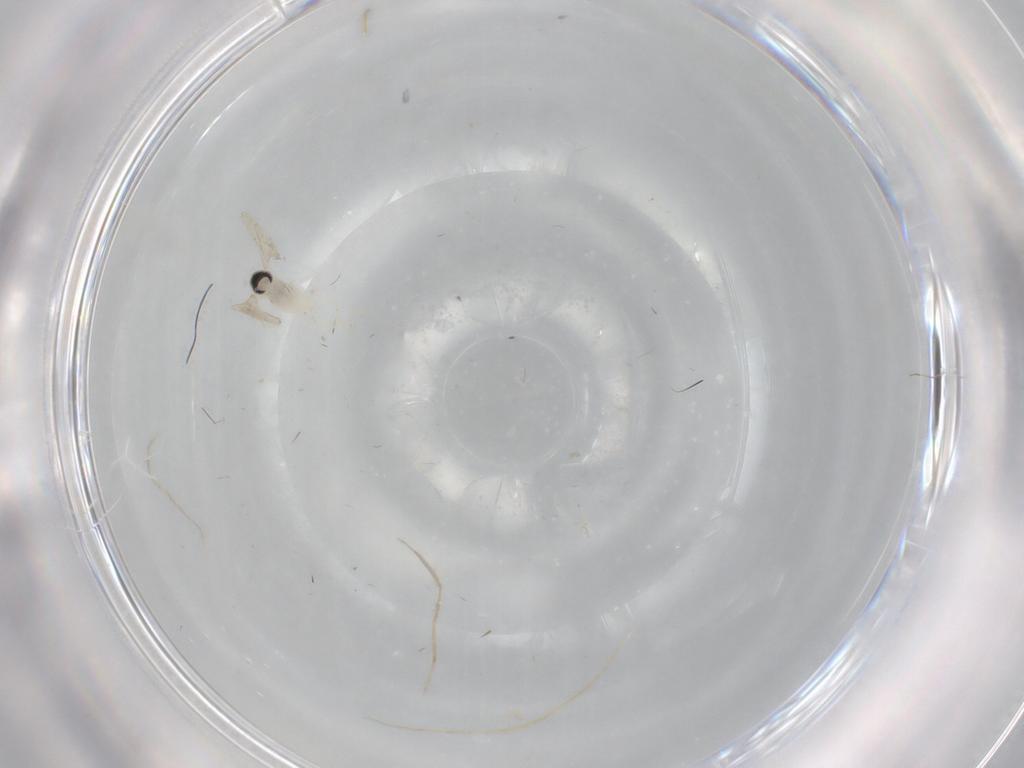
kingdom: Animalia
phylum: Arthropoda
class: Insecta
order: Diptera
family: Cecidomyiidae
